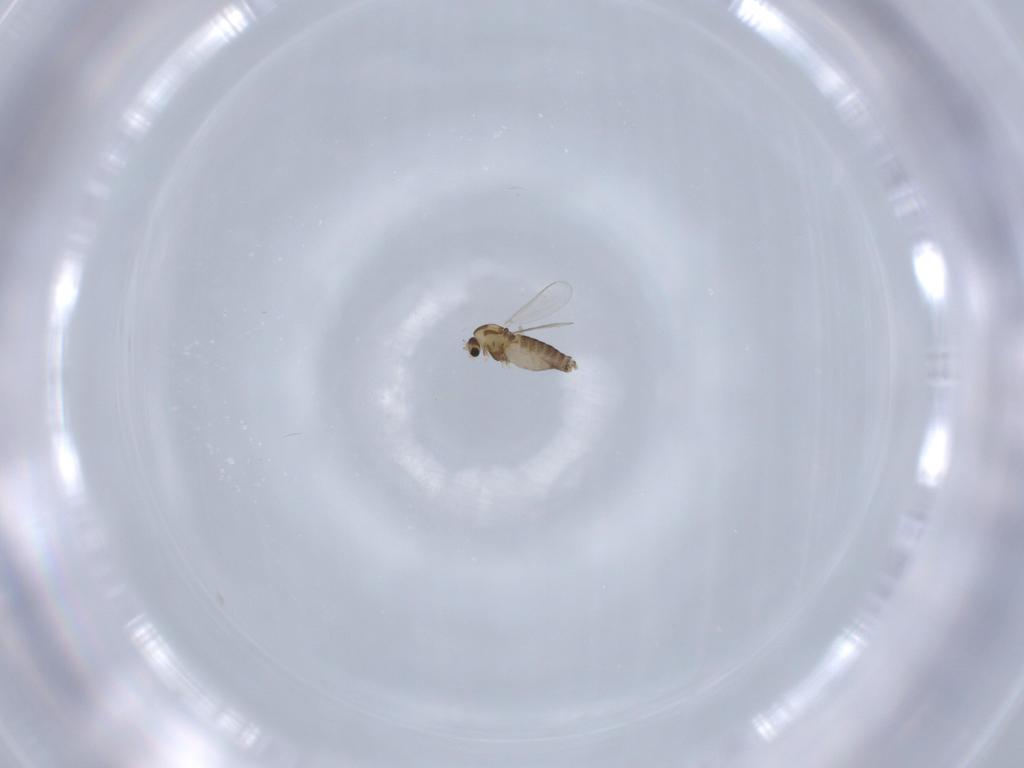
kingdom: Animalia
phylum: Arthropoda
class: Insecta
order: Diptera
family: Chironomidae
